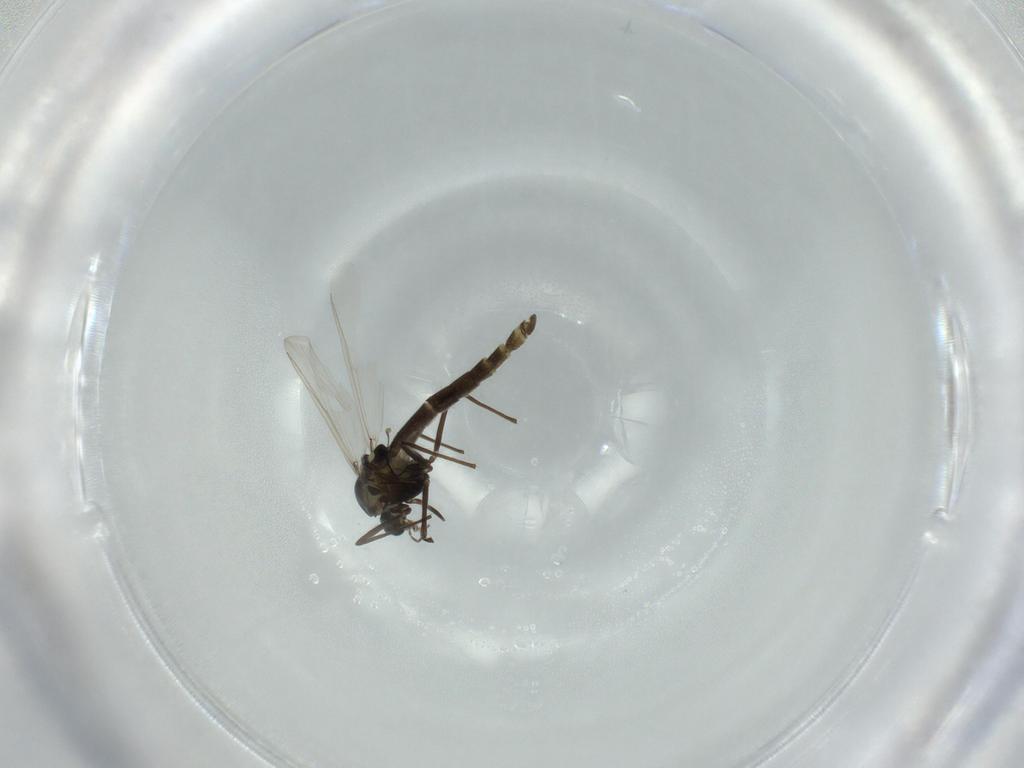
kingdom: Animalia
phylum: Arthropoda
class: Insecta
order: Diptera
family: Chironomidae
